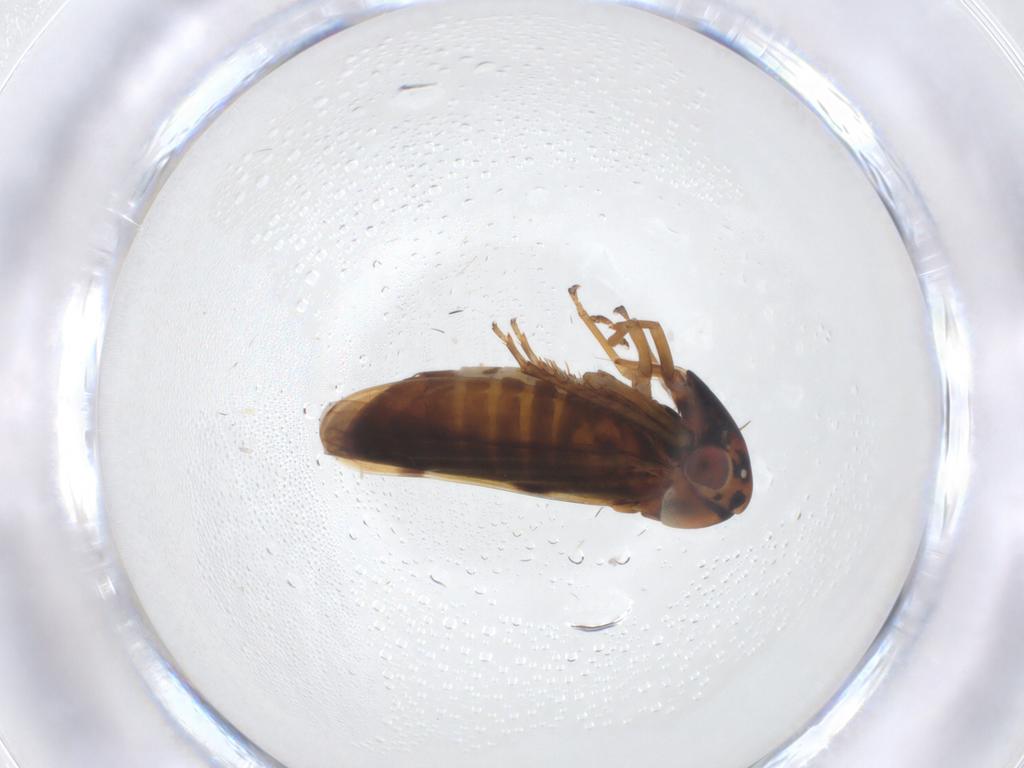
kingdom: Animalia
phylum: Arthropoda
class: Insecta
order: Hemiptera
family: Cicadellidae
